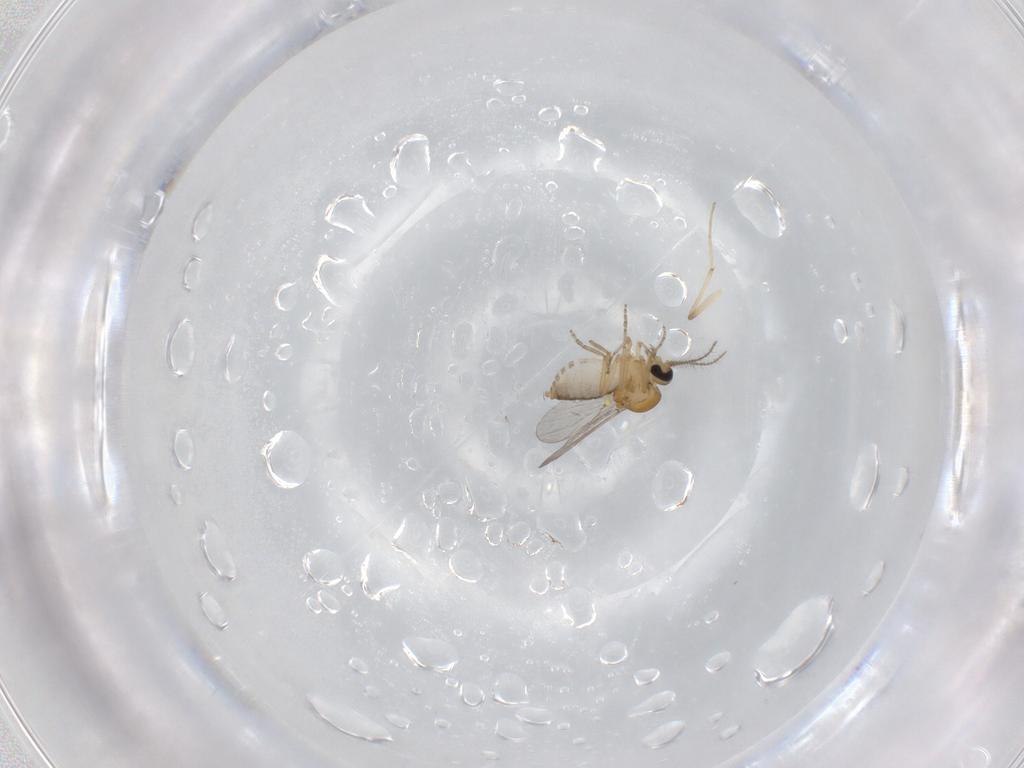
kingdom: Animalia
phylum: Arthropoda
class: Insecta
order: Diptera
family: Ceratopogonidae
